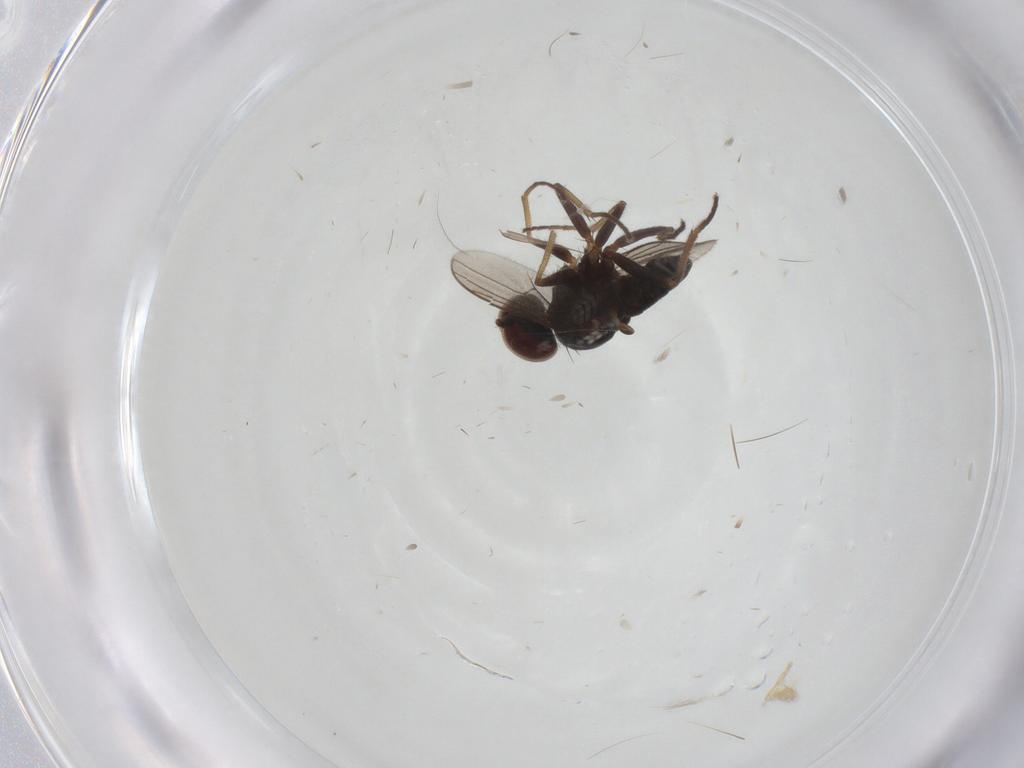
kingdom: Animalia
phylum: Arthropoda
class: Insecta
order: Diptera
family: Dolichopodidae
